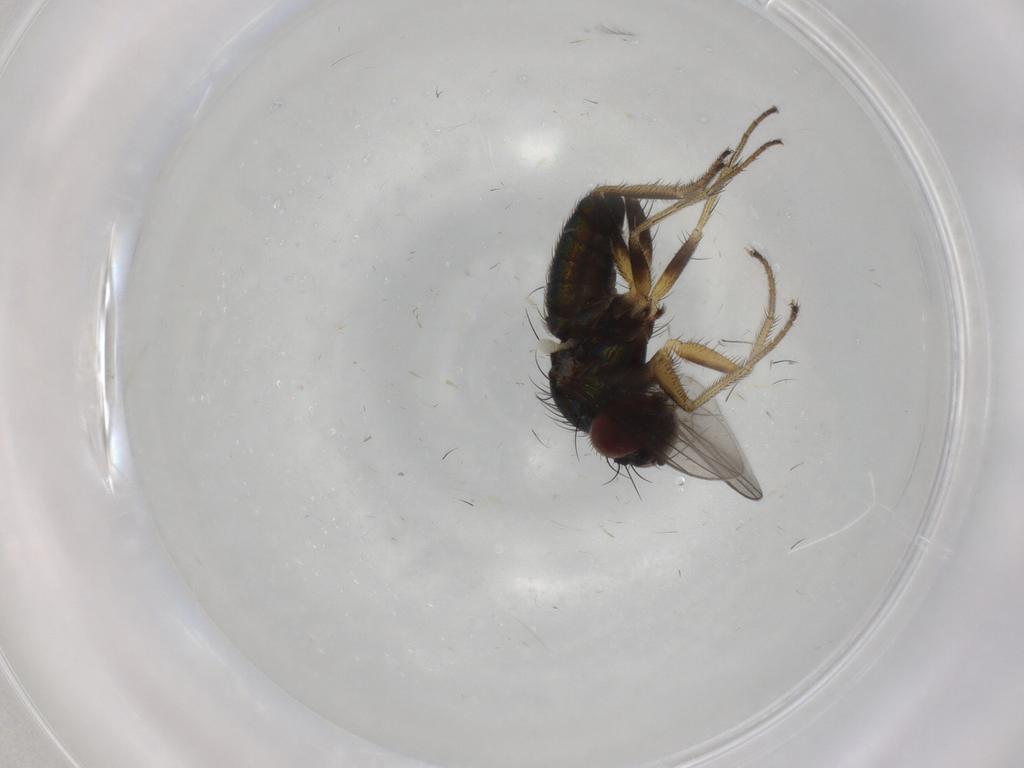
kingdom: Animalia
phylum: Arthropoda
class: Insecta
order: Diptera
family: Dolichopodidae
